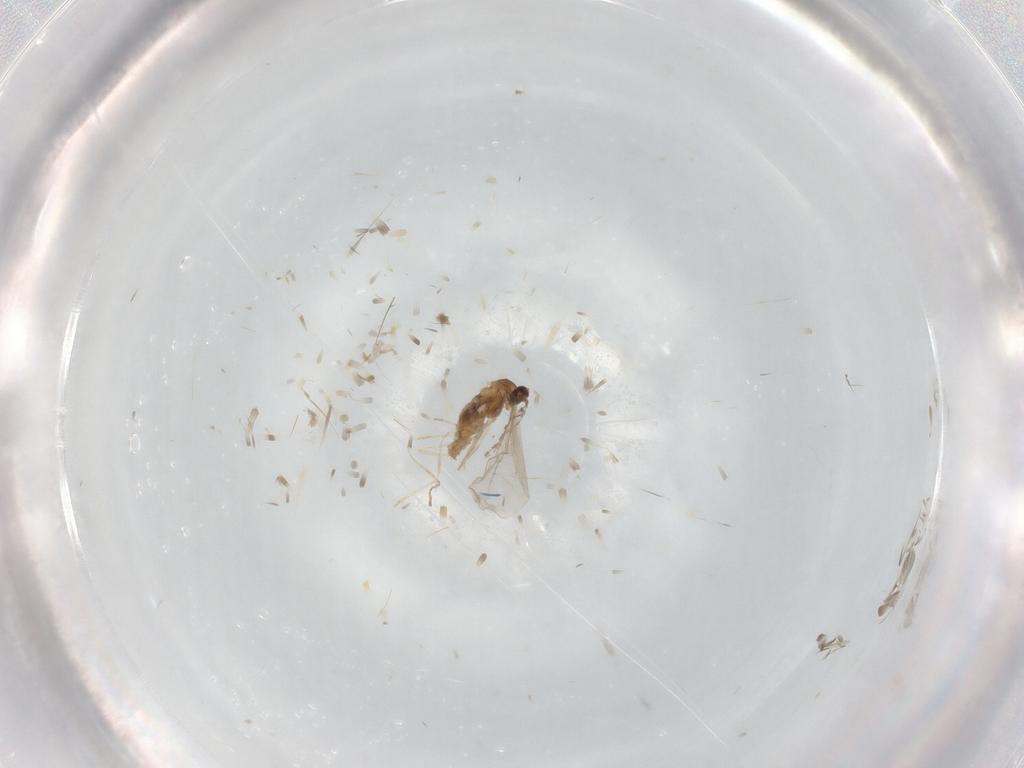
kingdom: Animalia
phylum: Arthropoda
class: Insecta
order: Diptera
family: Cecidomyiidae
